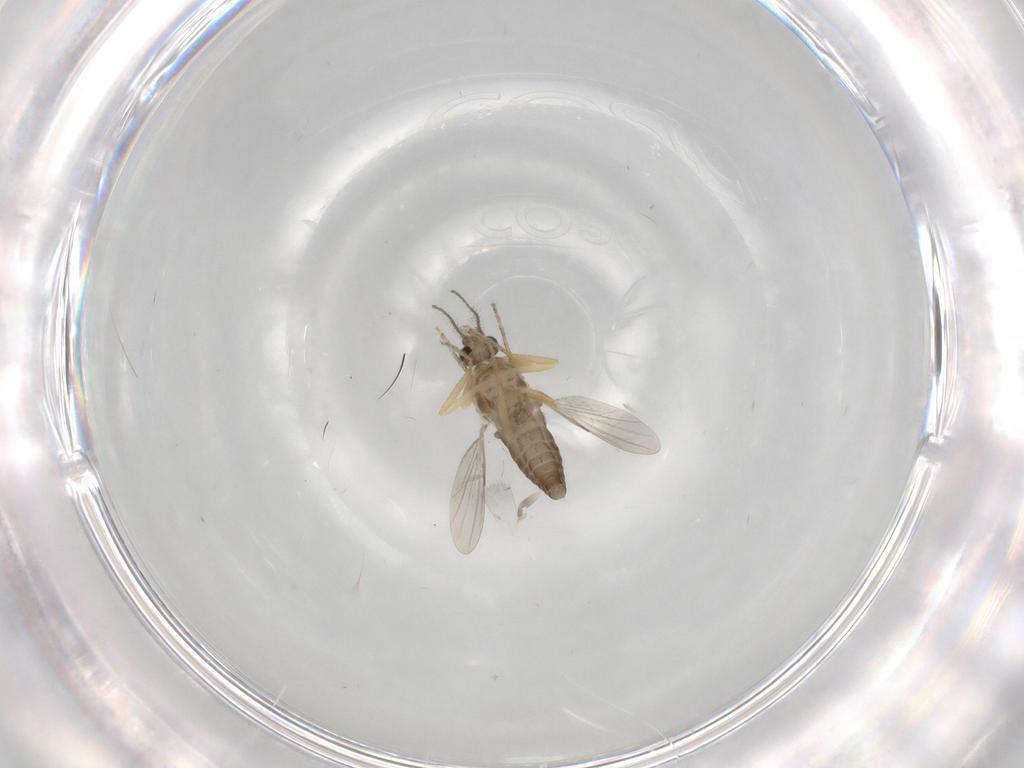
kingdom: Animalia
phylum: Arthropoda
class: Insecta
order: Diptera
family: Ceratopogonidae
